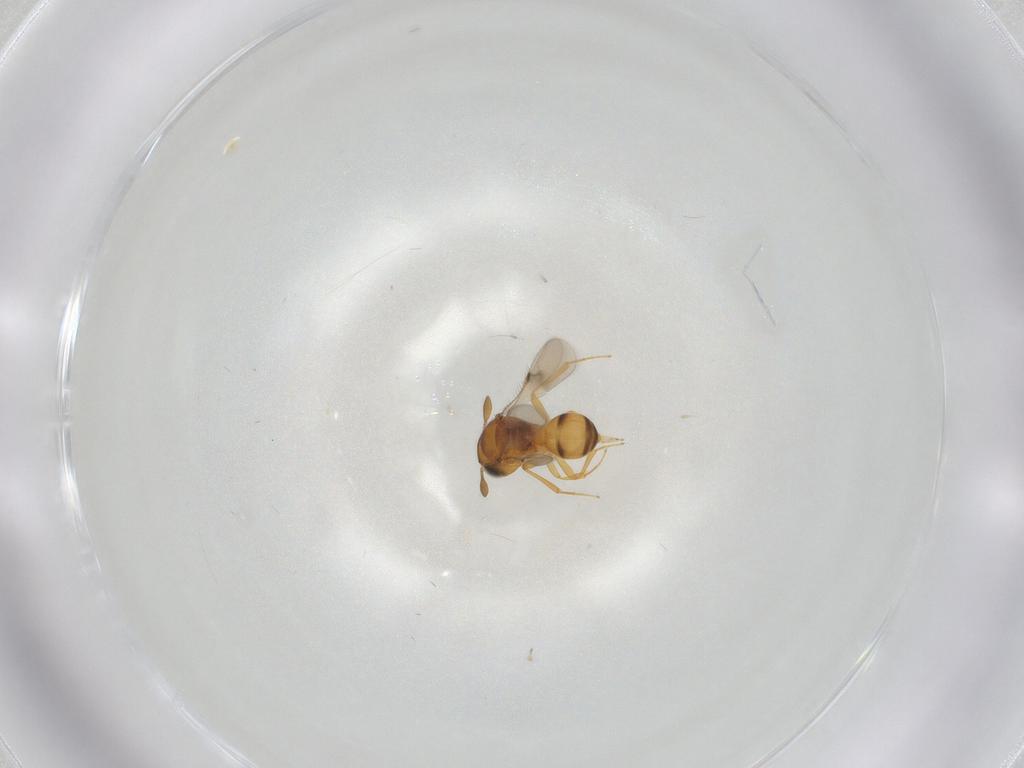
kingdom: Animalia
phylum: Arthropoda
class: Insecta
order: Hymenoptera
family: Scelionidae
